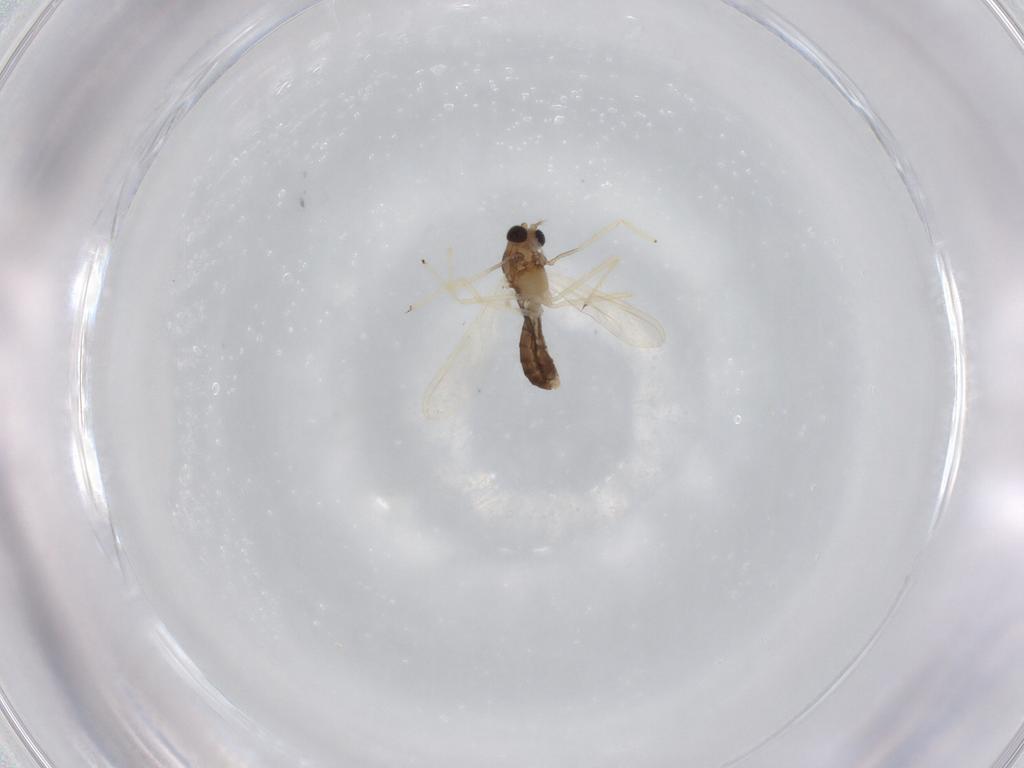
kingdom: Animalia
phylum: Arthropoda
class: Insecta
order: Diptera
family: Chironomidae
